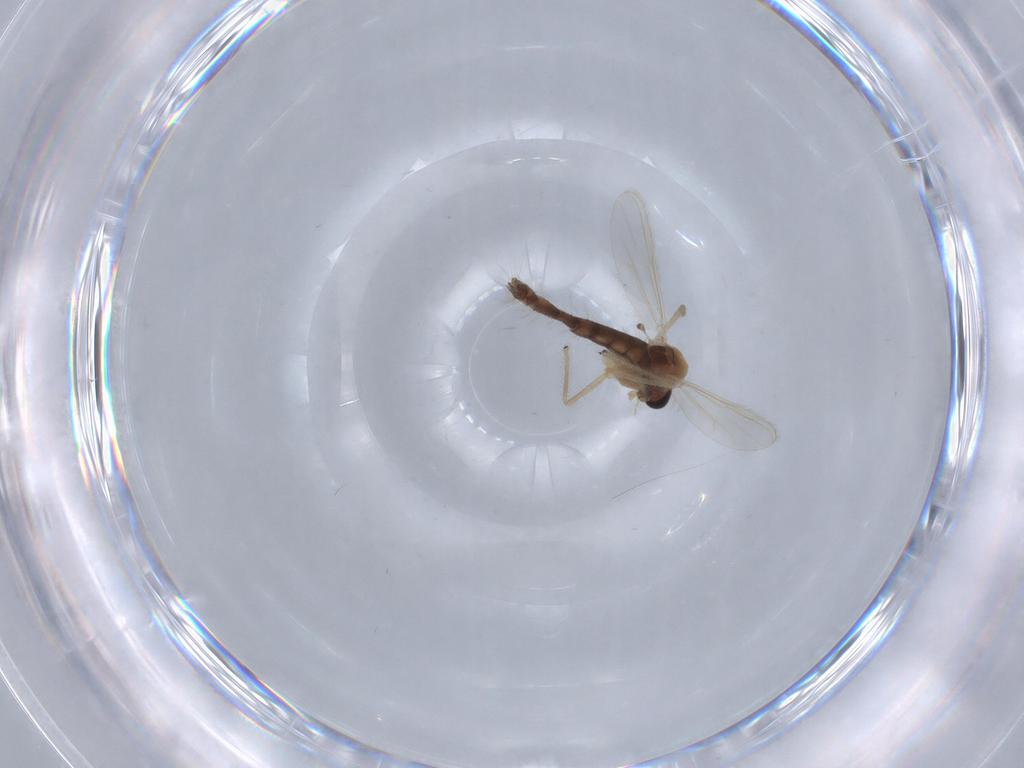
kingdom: Animalia
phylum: Arthropoda
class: Insecta
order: Diptera
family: Chironomidae
